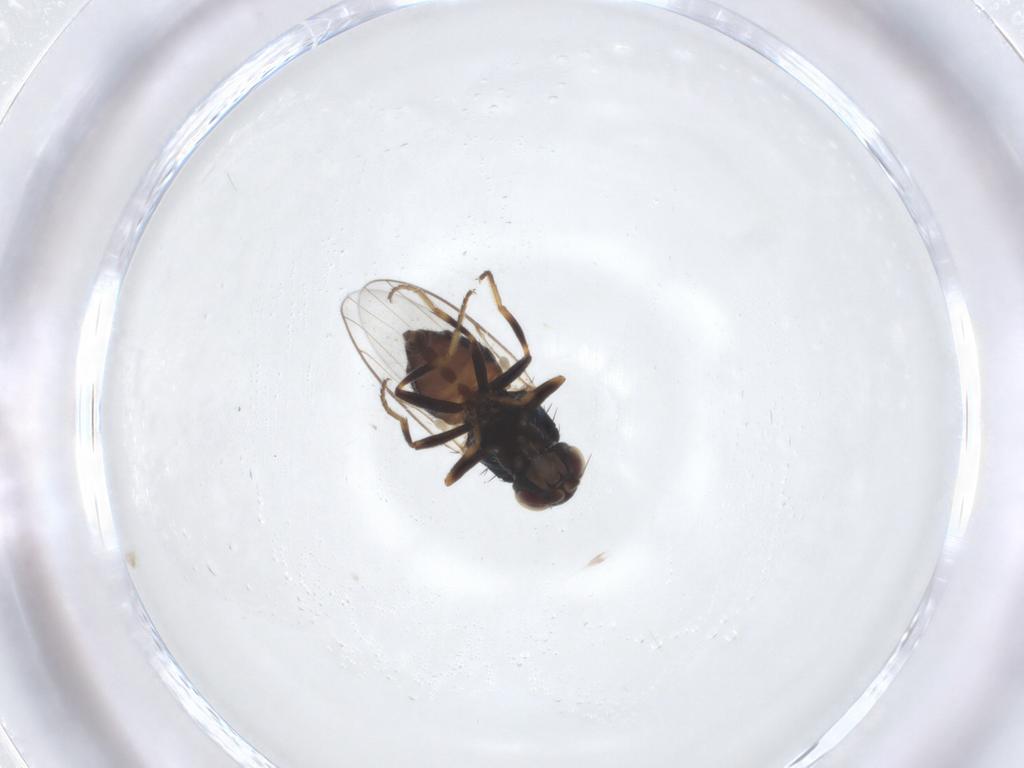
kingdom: Animalia
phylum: Arthropoda
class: Insecta
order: Diptera
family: Chloropidae
